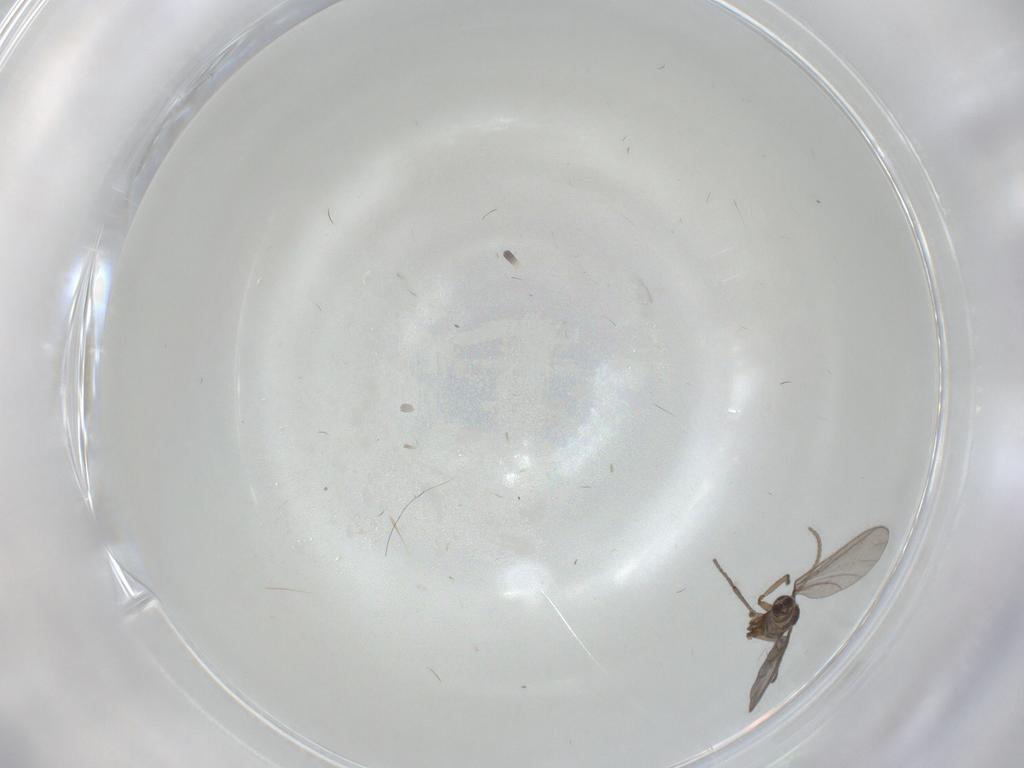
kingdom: Animalia
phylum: Arthropoda
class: Insecta
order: Diptera
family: Sciaridae
